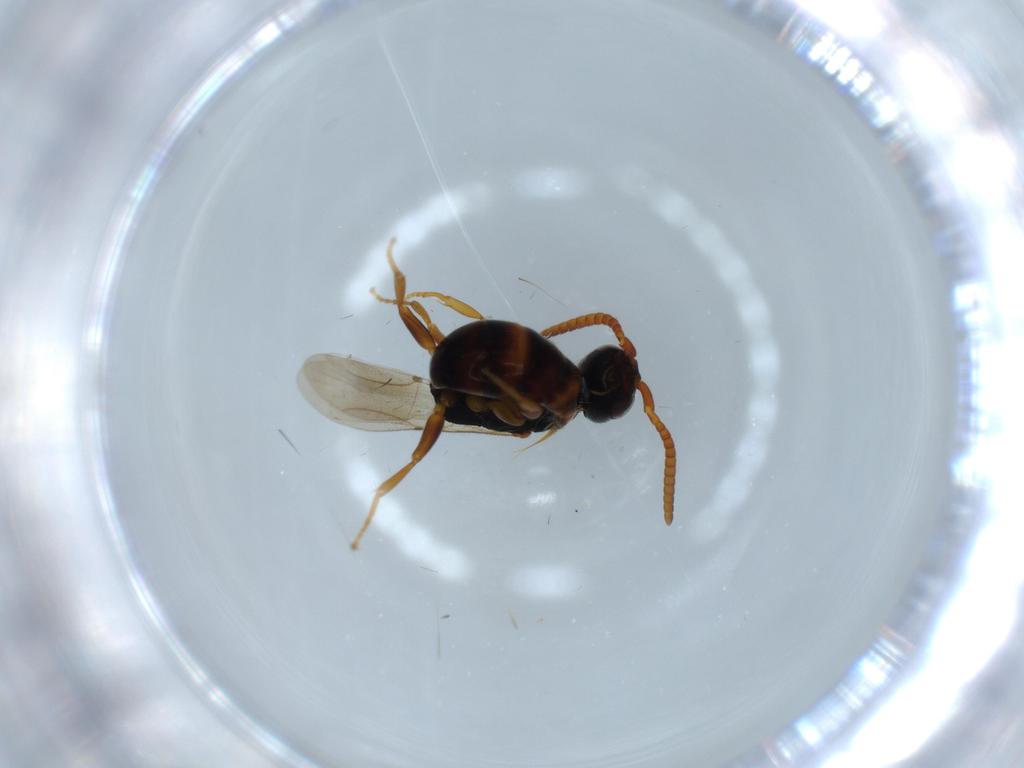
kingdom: Animalia
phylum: Arthropoda
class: Insecta
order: Hymenoptera
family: Bethylidae
